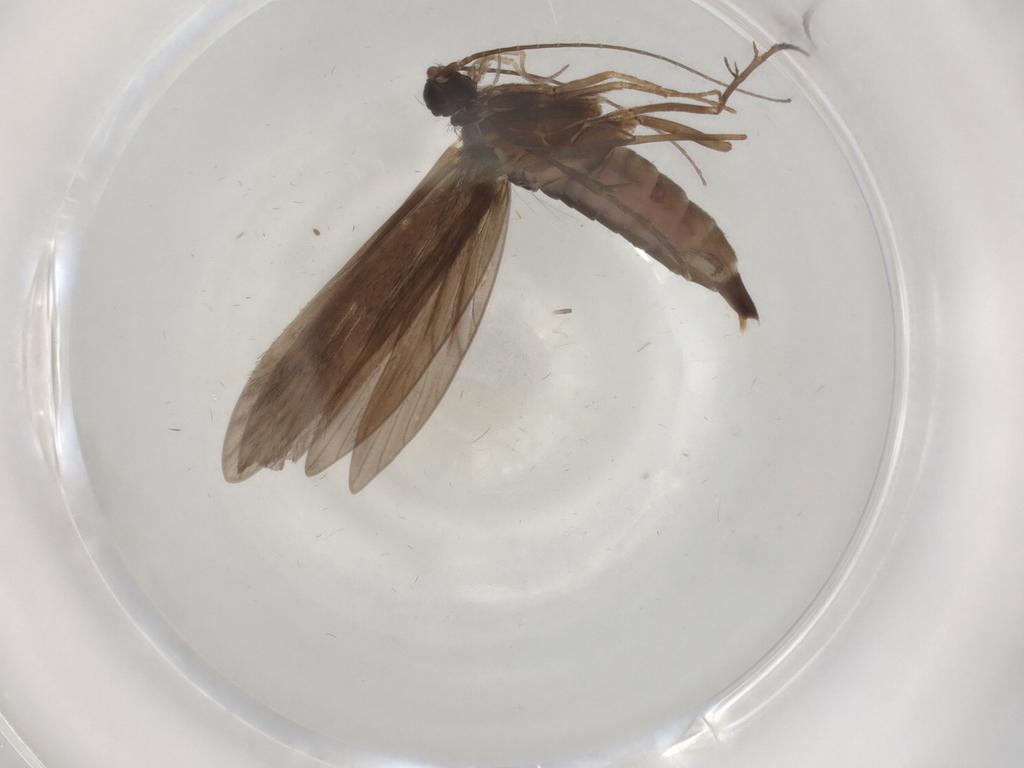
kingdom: Animalia
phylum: Arthropoda
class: Insecta
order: Trichoptera
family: Xiphocentronidae
